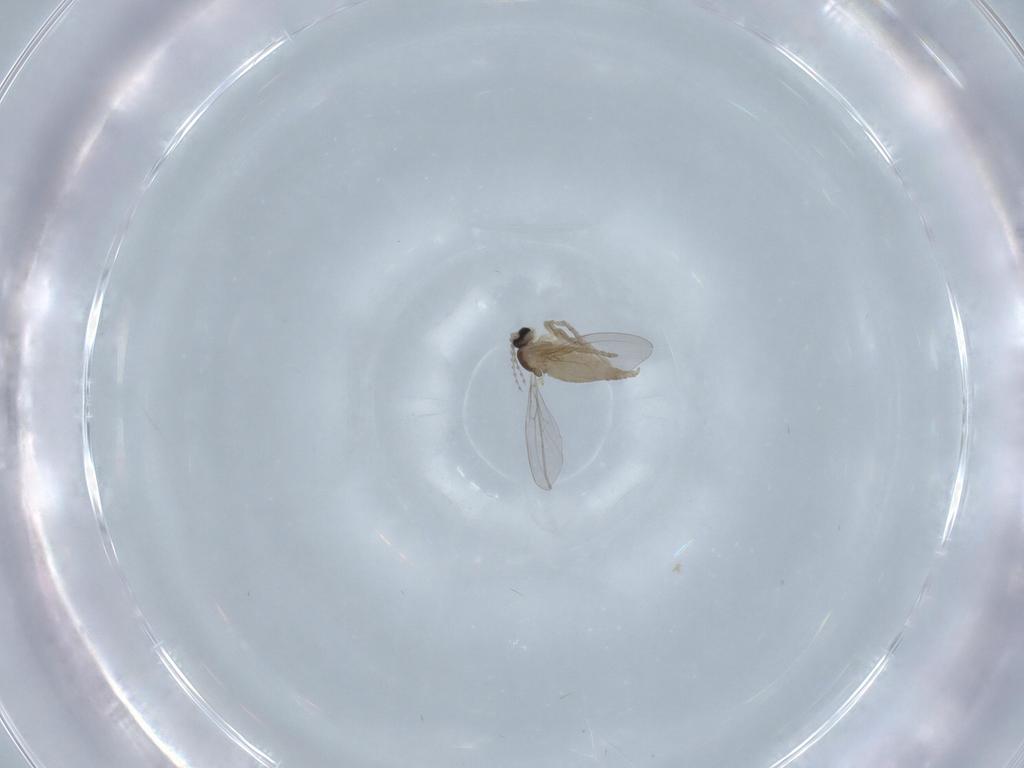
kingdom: Animalia
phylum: Arthropoda
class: Insecta
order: Diptera
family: Cecidomyiidae
